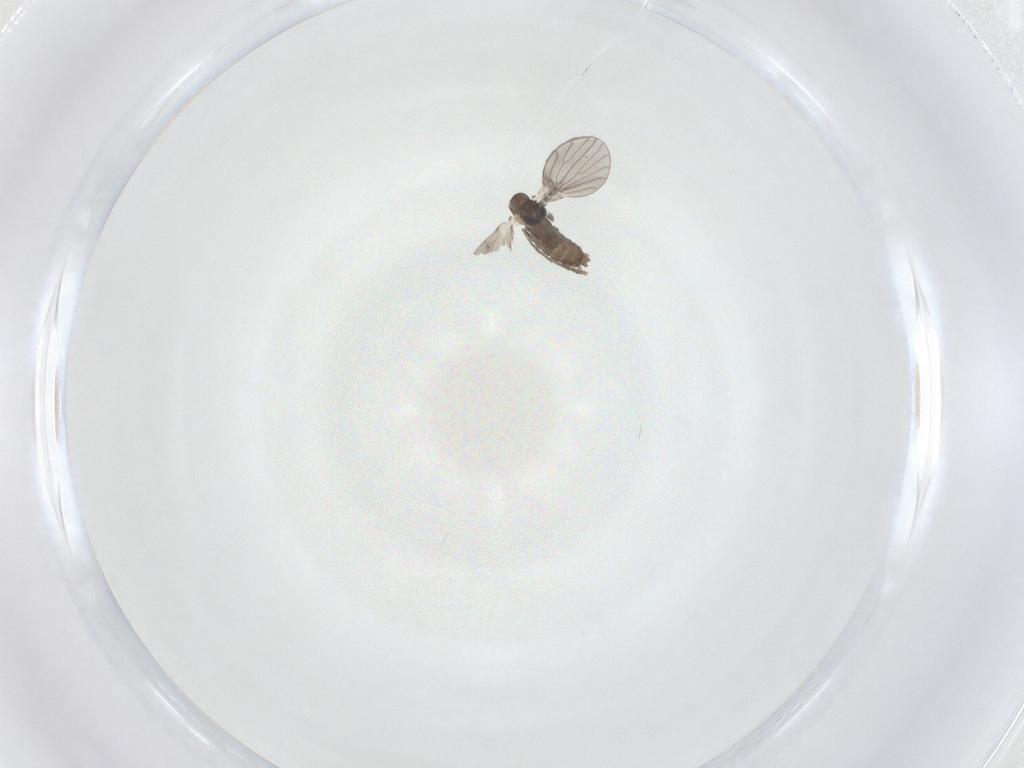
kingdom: Animalia
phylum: Arthropoda
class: Insecta
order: Diptera
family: Psychodidae
